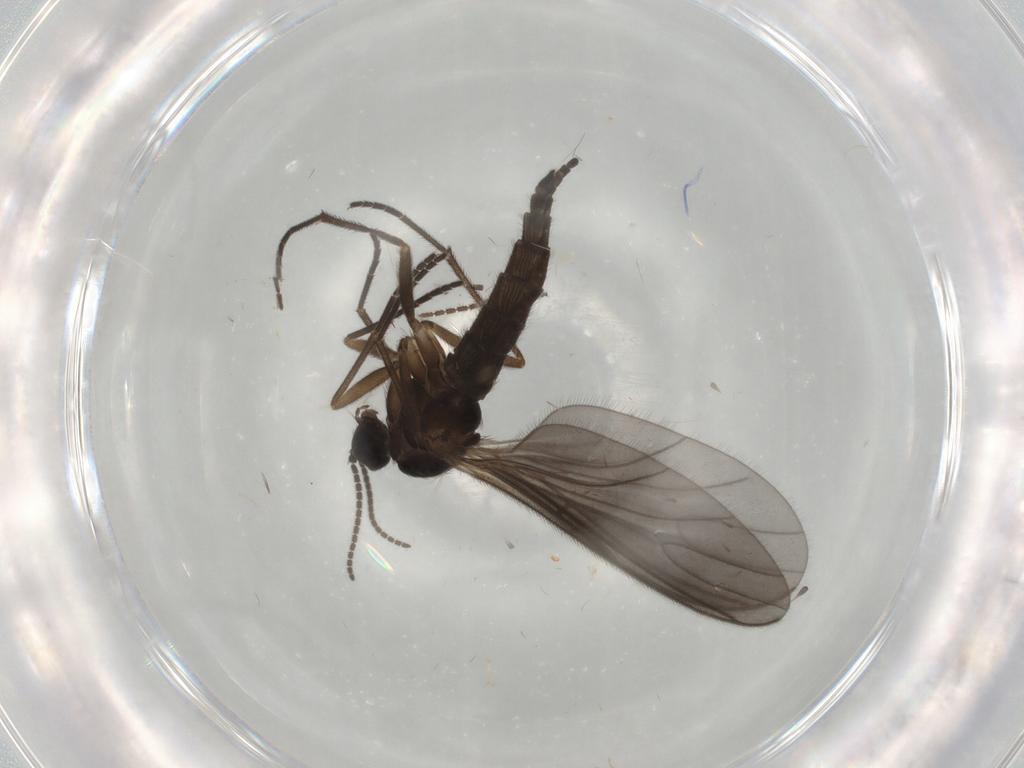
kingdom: Animalia
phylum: Arthropoda
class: Insecta
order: Diptera
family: Sciaridae
